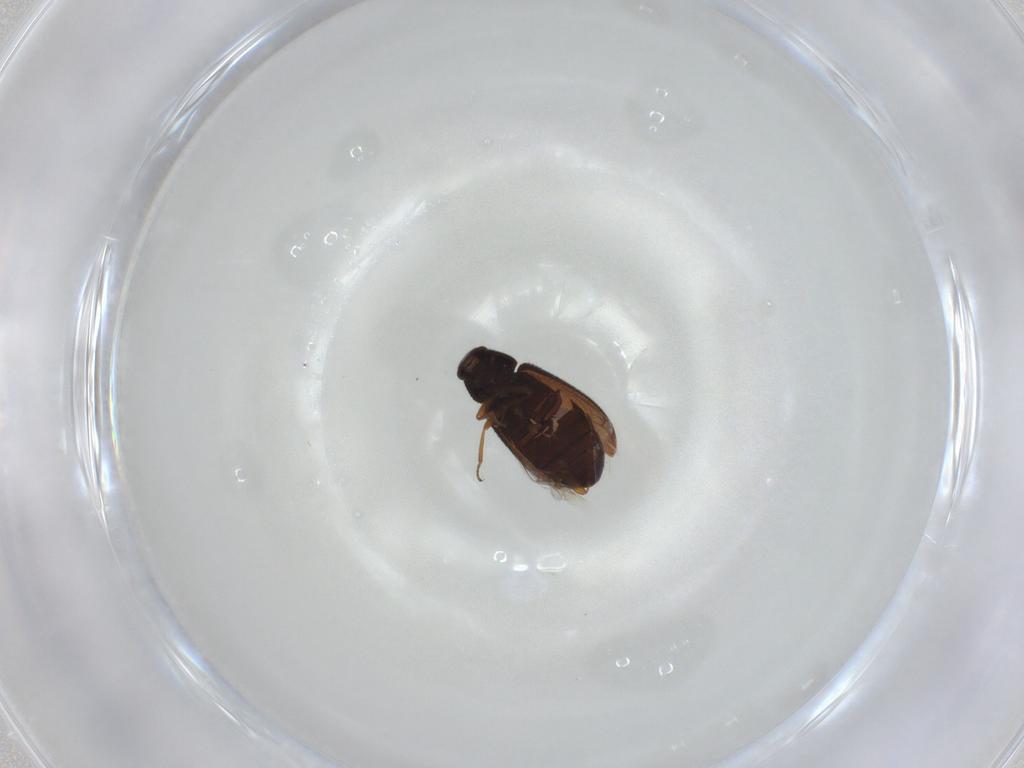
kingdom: Animalia
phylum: Arthropoda
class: Insecta
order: Coleoptera
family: Rhadalidae
